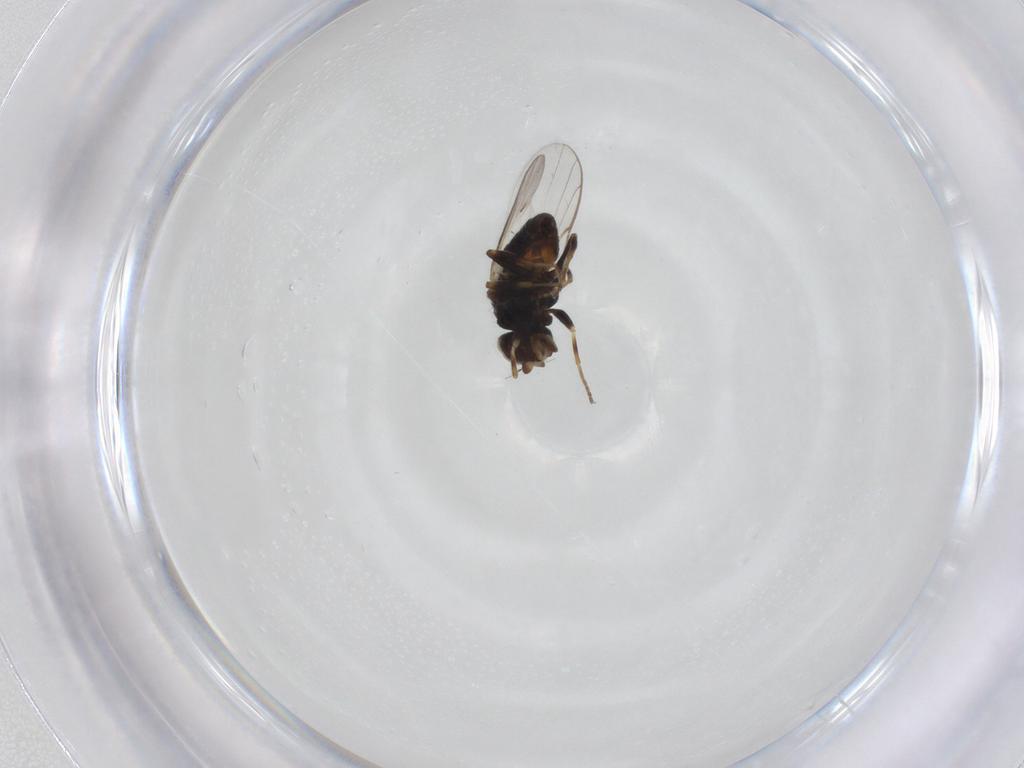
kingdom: Animalia
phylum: Arthropoda
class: Insecta
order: Diptera
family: Chloropidae
